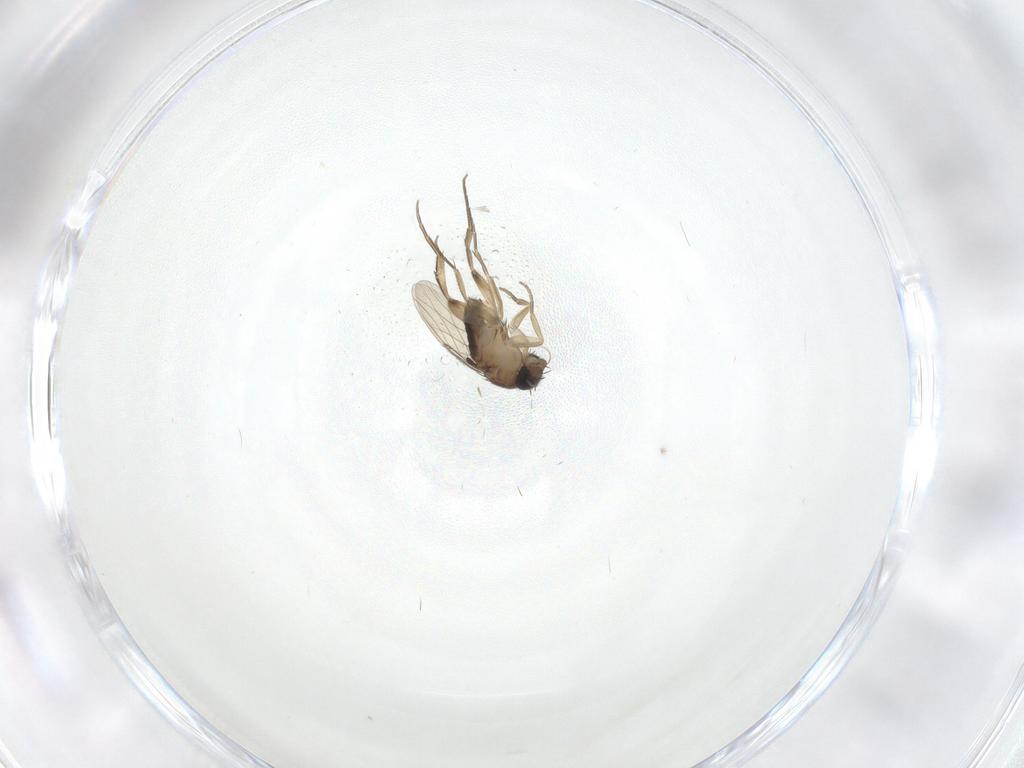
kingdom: Animalia
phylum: Arthropoda
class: Insecta
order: Diptera
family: Phoridae
